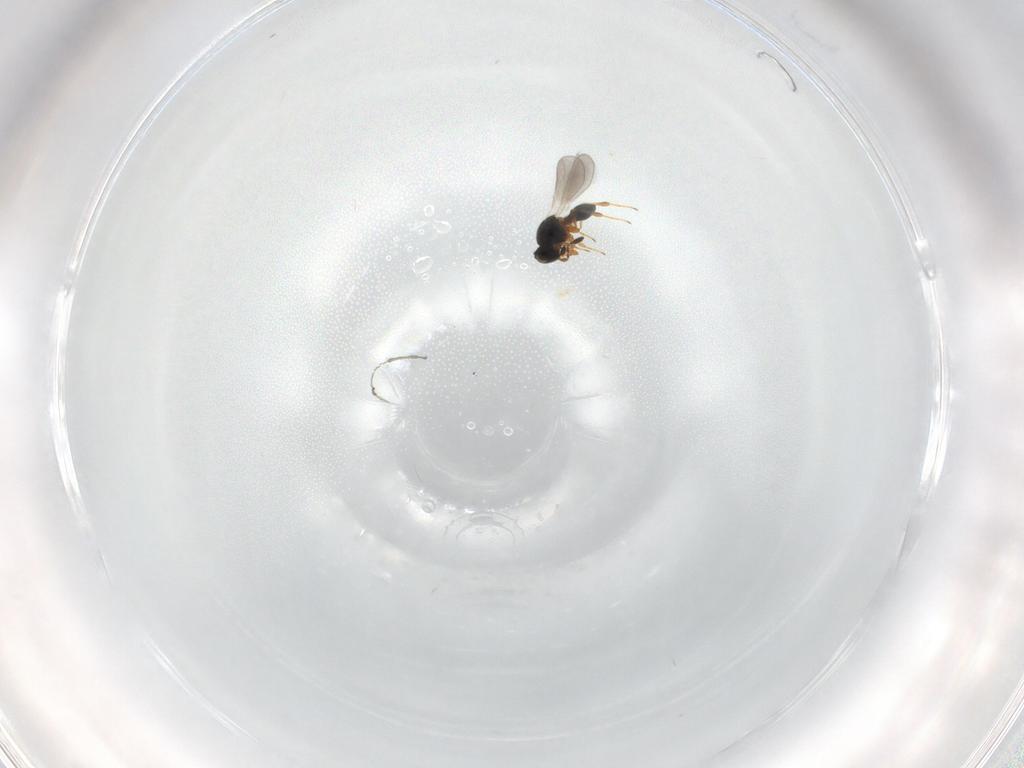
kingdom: Animalia
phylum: Arthropoda
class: Insecta
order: Hymenoptera
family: Platygastridae
